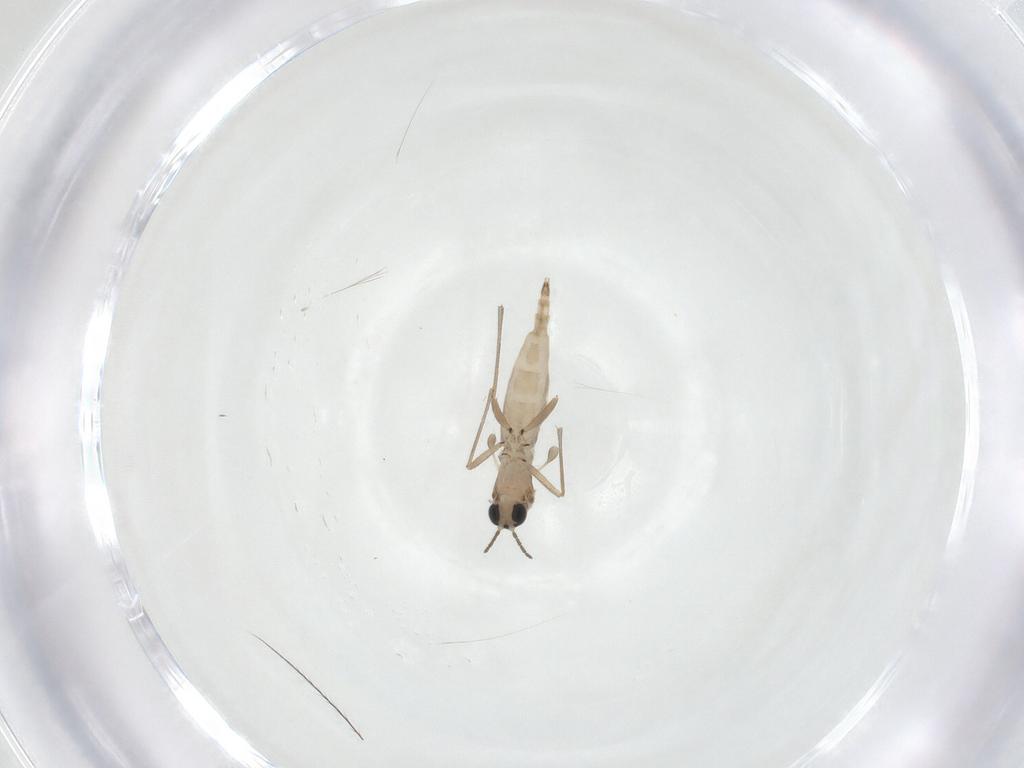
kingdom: Animalia
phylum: Arthropoda
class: Insecta
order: Diptera
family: Sciaridae
